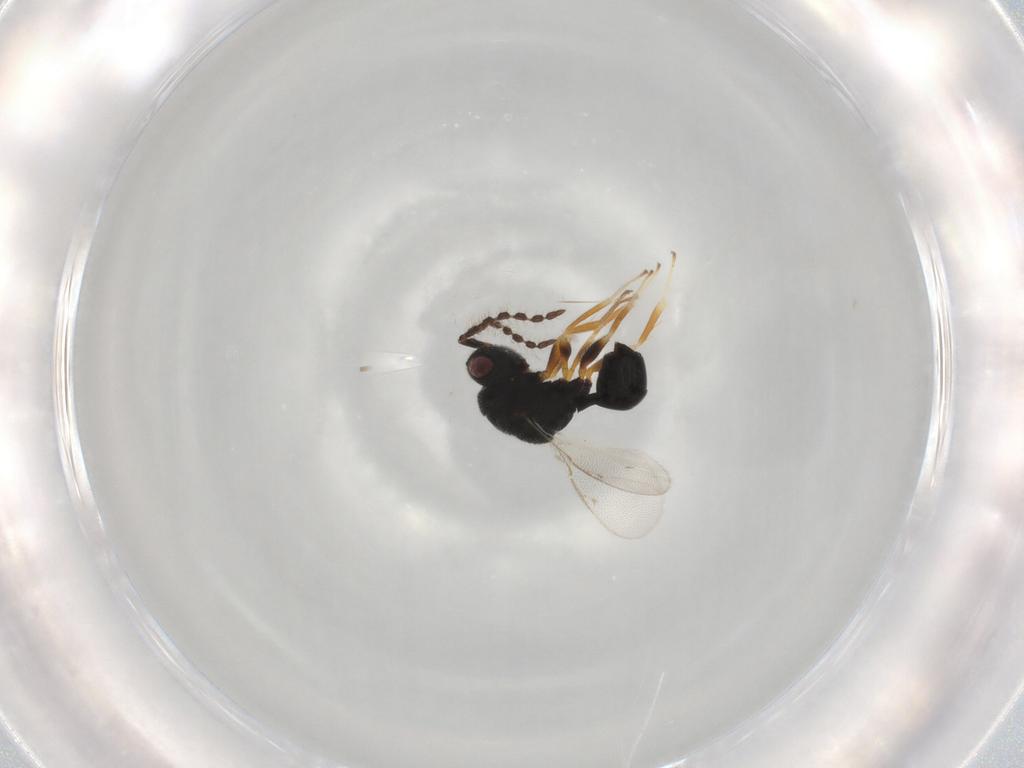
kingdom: Animalia
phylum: Arthropoda
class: Insecta
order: Hymenoptera
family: Eurytomidae
